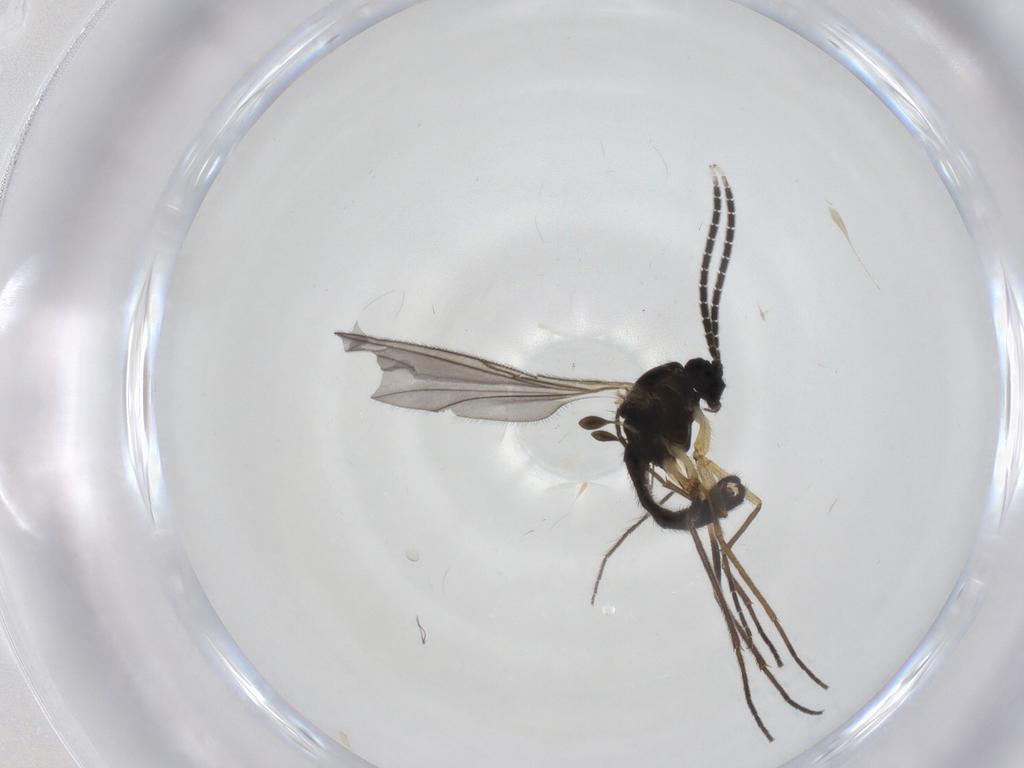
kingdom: Animalia
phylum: Arthropoda
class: Insecta
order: Diptera
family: Sciaridae
